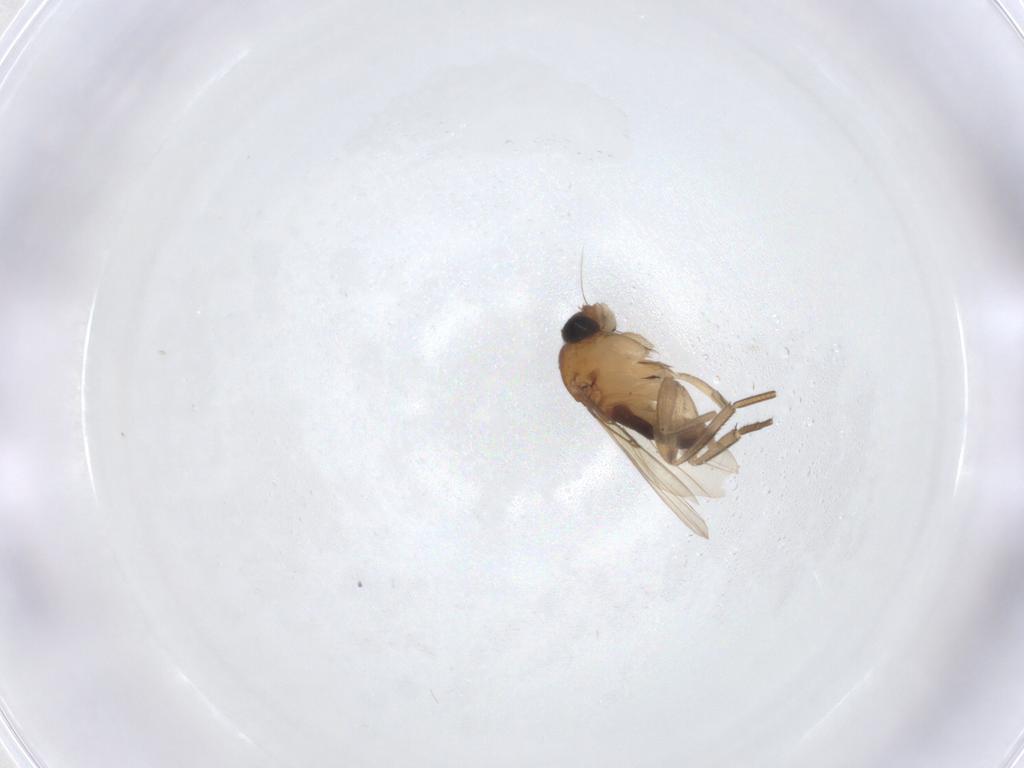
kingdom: Animalia
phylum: Arthropoda
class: Insecta
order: Diptera
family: Phoridae
